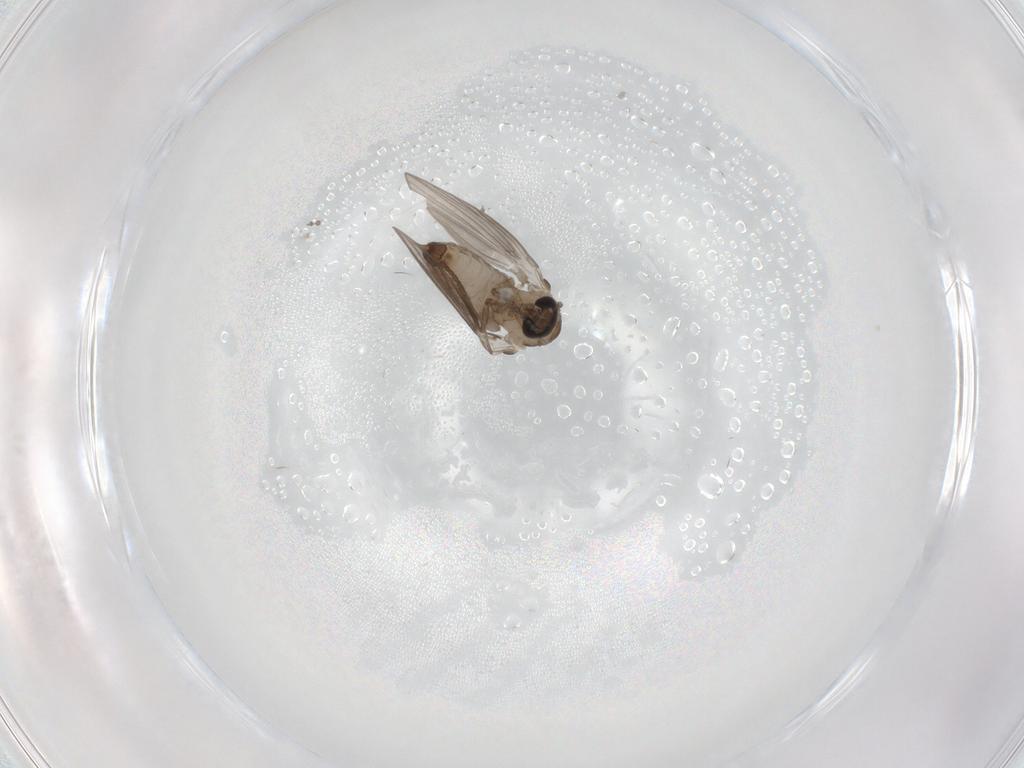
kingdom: Animalia
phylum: Arthropoda
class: Insecta
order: Diptera
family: Psychodidae
